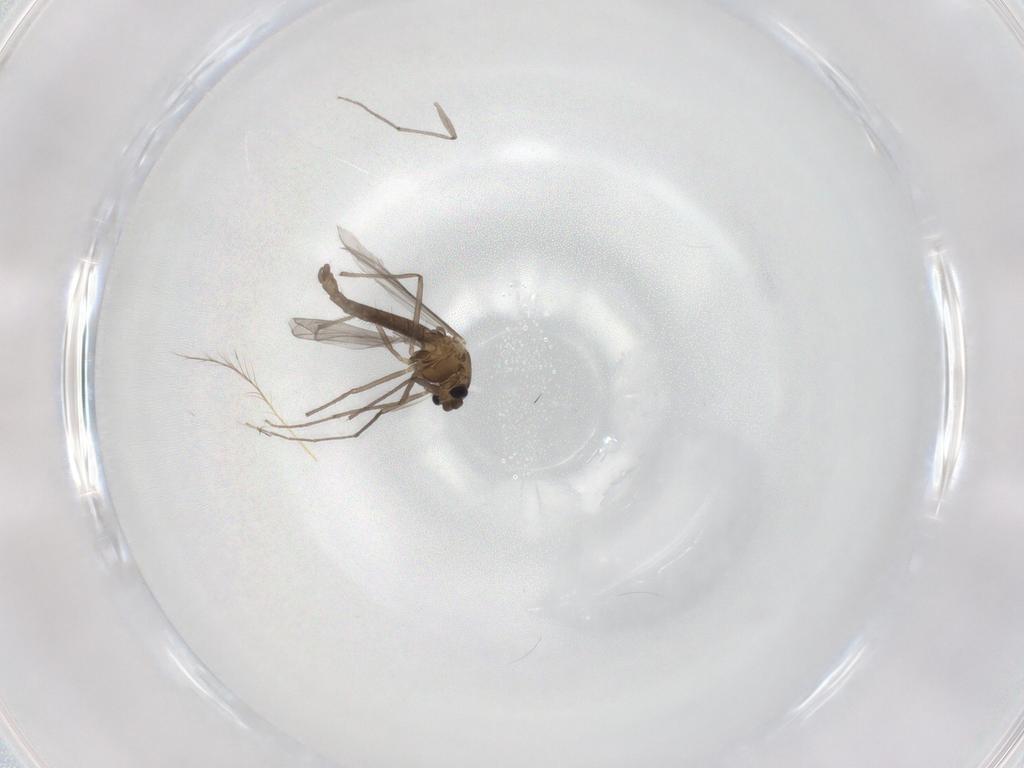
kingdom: Animalia
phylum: Arthropoda
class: Insecta
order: Diptera
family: Chironomidae
